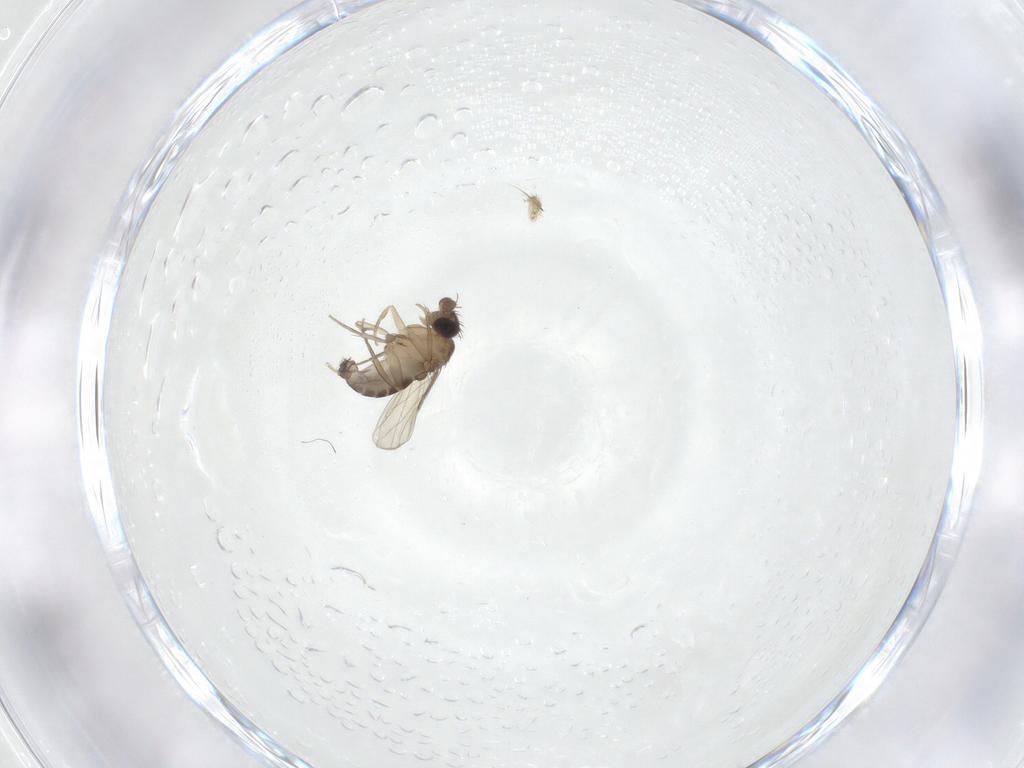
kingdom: Animalia
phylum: Arthropoda
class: Insecta
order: Diptera
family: Phoridae
